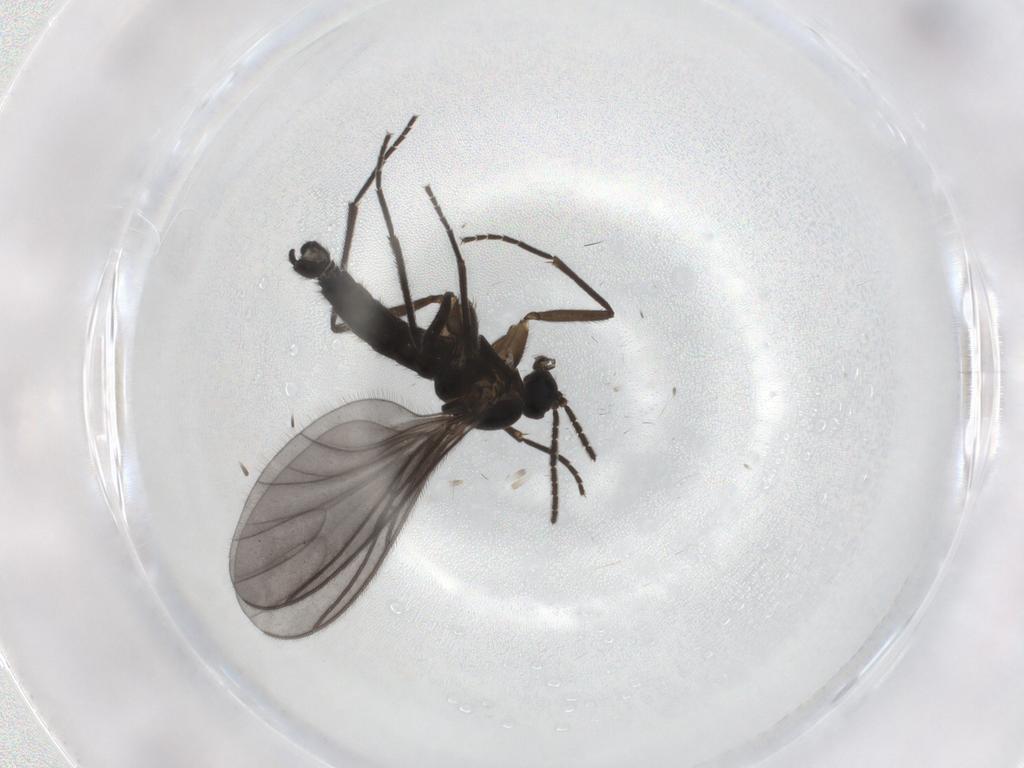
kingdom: Animalia
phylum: Arthropoda
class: Insecta
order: Diptera
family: Sciaridae
